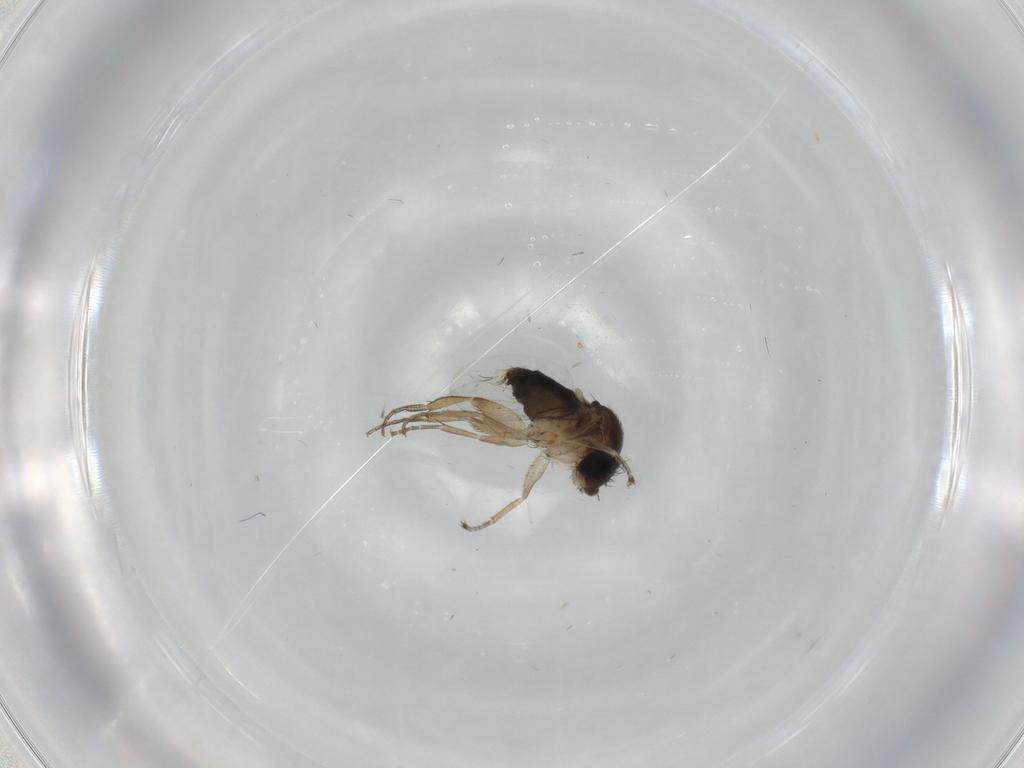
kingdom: Animalia
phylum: Arthropoda
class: Insecta
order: Diptera
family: Phoridae
